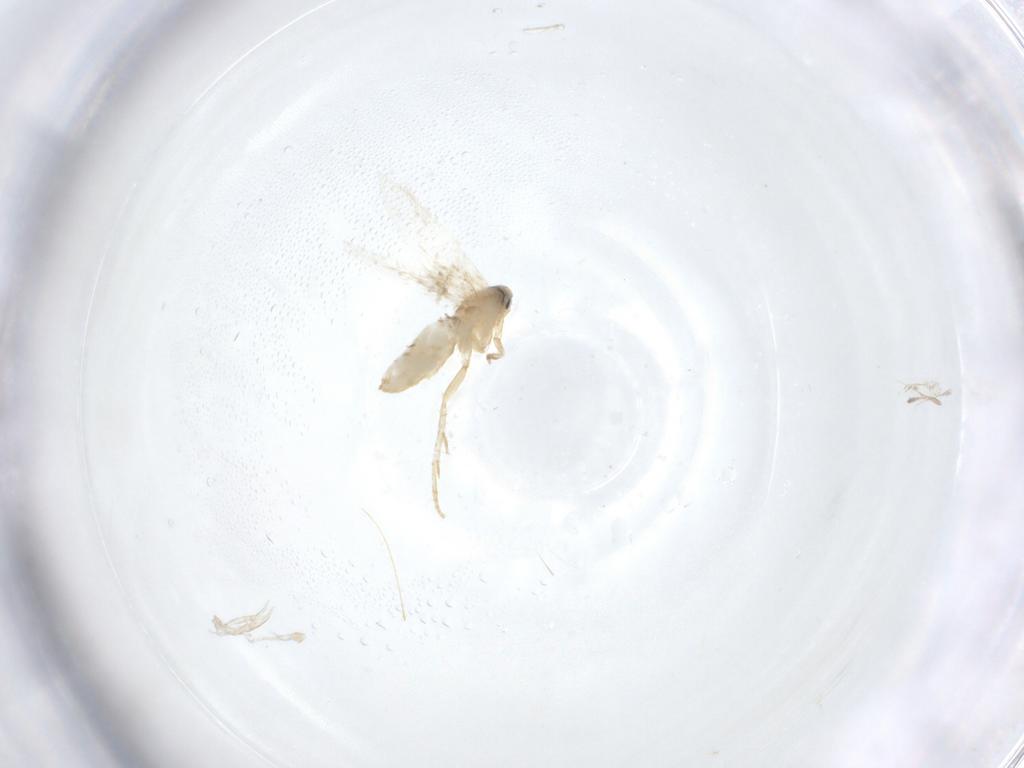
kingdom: Animalia
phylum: Arthropoda
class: Insecta
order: Lepidoptera
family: Nepticulidae
